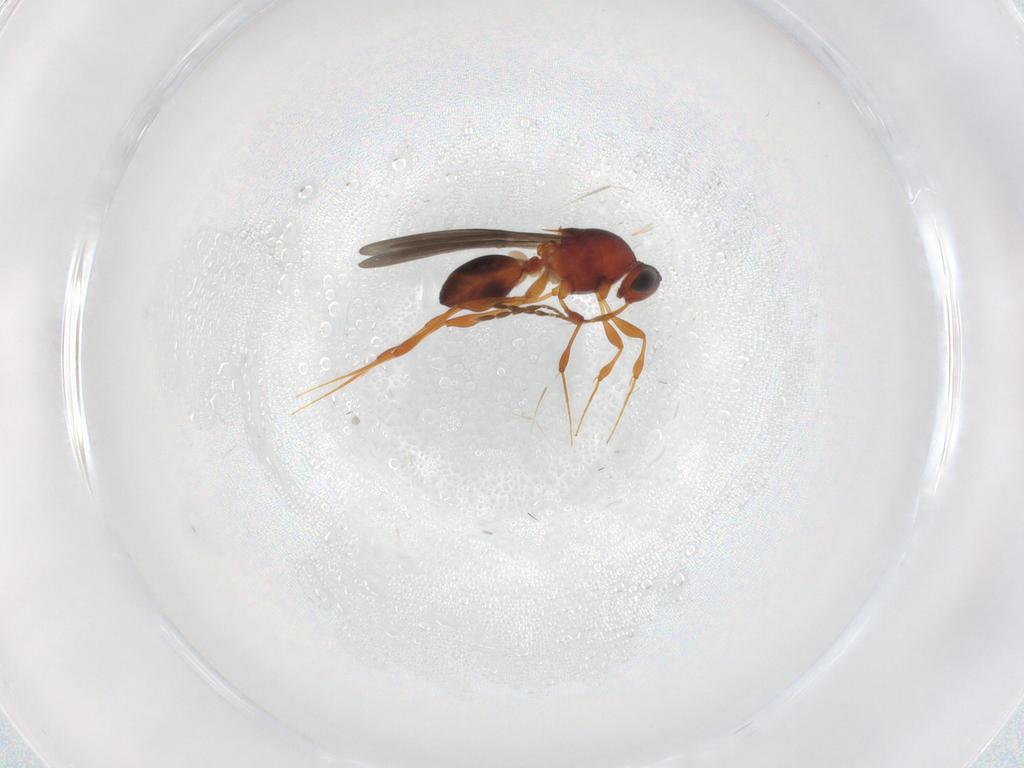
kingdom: Animalia
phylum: Arthropoda
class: Insecta
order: Hymenoptera
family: Platygastridae
